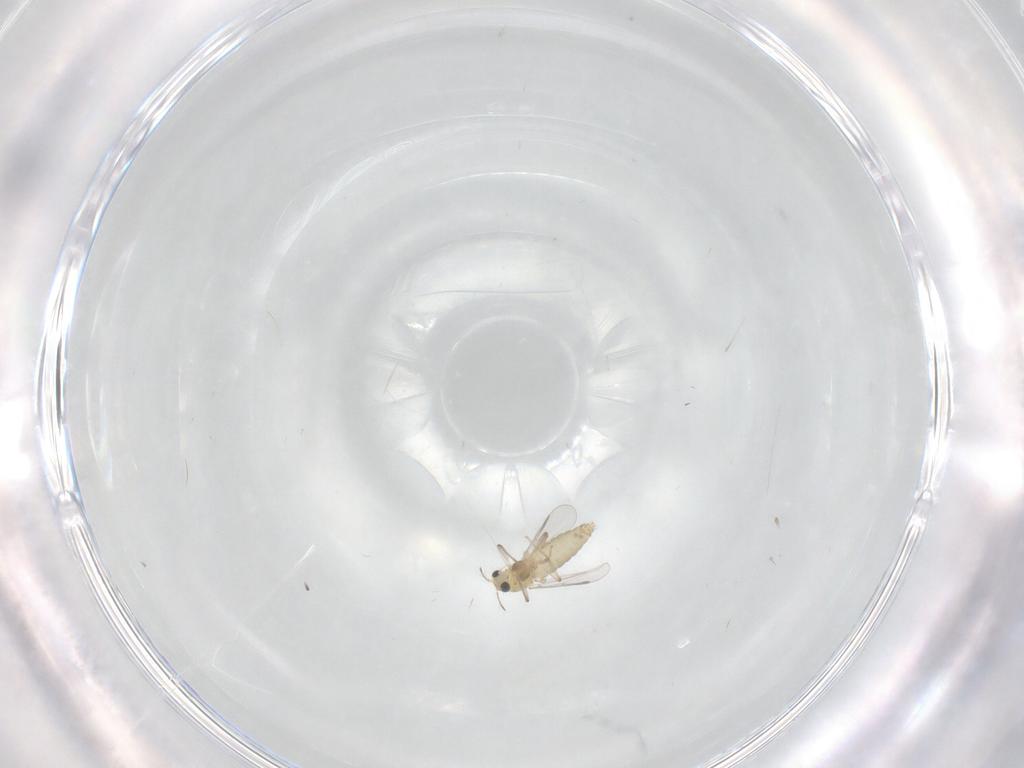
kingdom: Animalia
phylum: Arthropoda
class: Insecta
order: Diptera
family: Chironomidae
